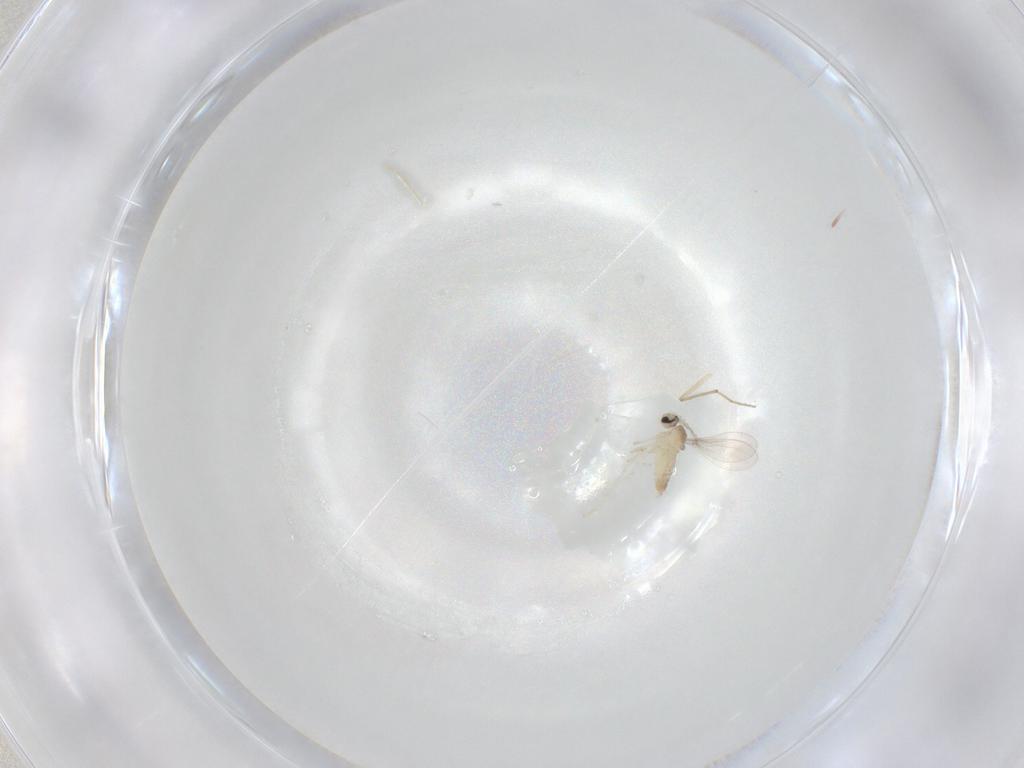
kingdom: Animalia
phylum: Arthropoda
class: Insecta
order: Diptera
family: Cecidomyiidae
